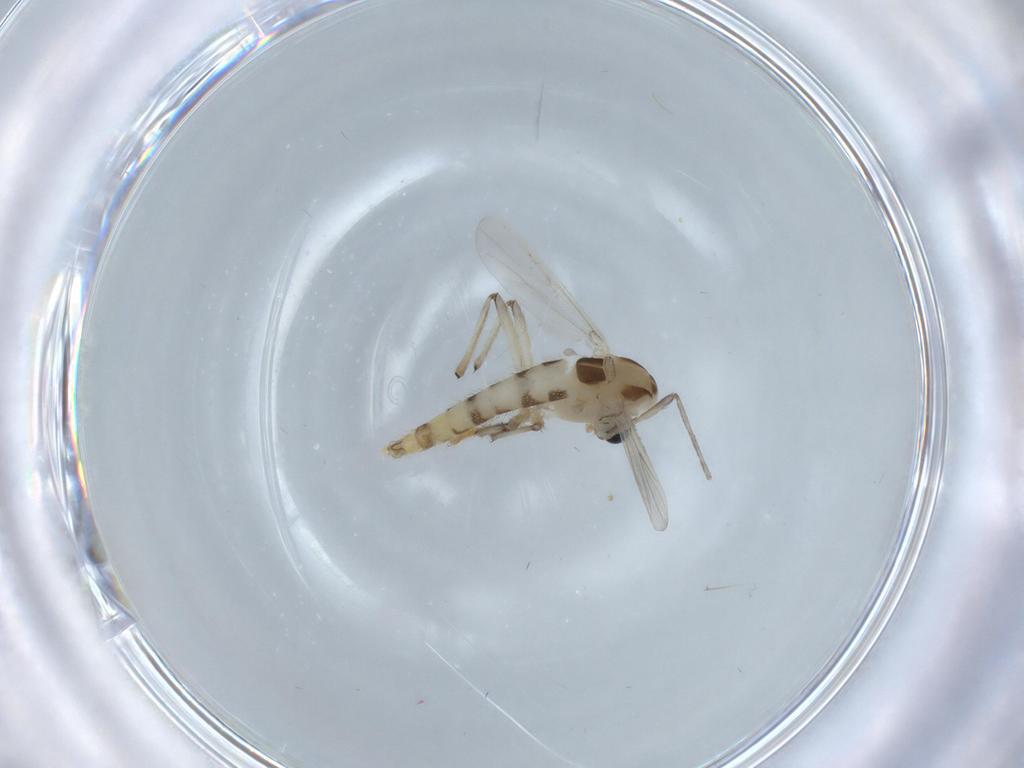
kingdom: Animalia
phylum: Arthropoda
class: Insecta
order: Diptera
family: Chironomidae
